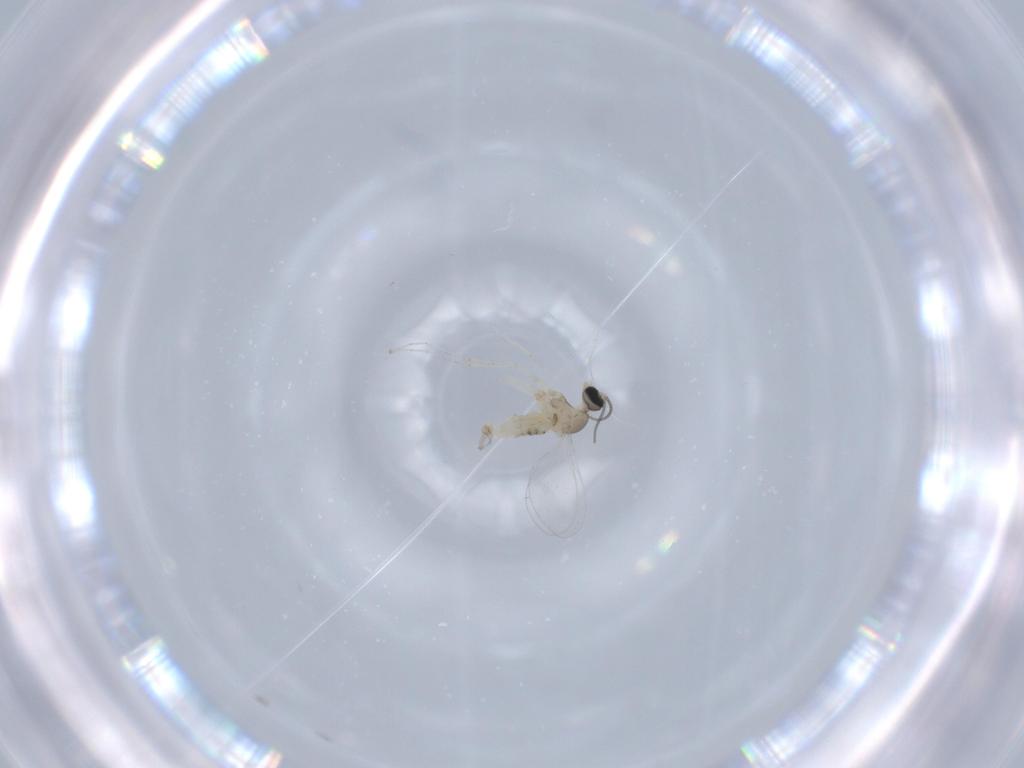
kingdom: Animalia
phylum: Arthropoda
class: Insecta
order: Diptera
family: Cecidomyiidae
